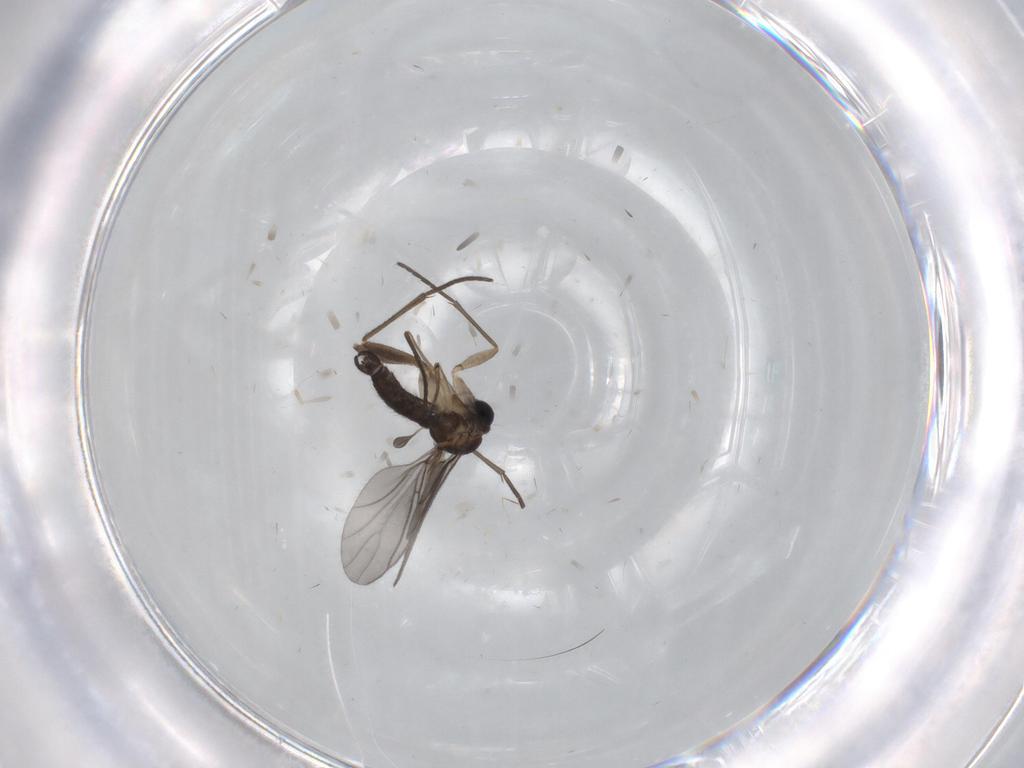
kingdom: Animalia
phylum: Arthropoda
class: Insecta
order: Diptera
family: Sciaridae
